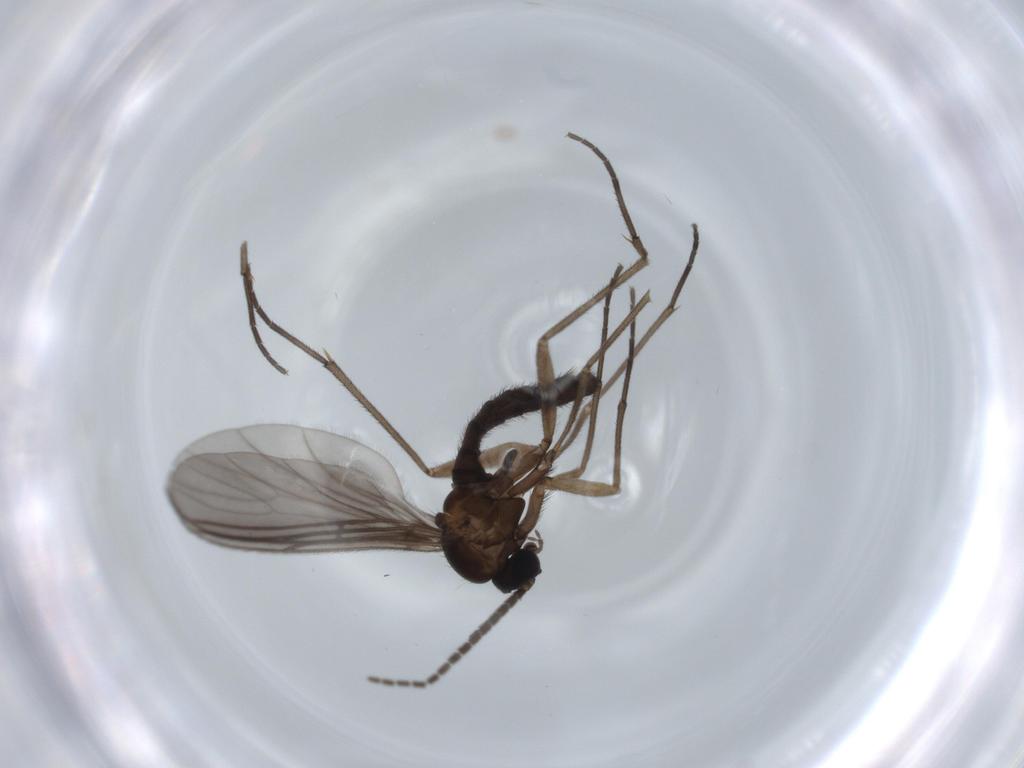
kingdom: Animalia
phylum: Arthropoda
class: Insecta
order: Diptera
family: Sciaridae
